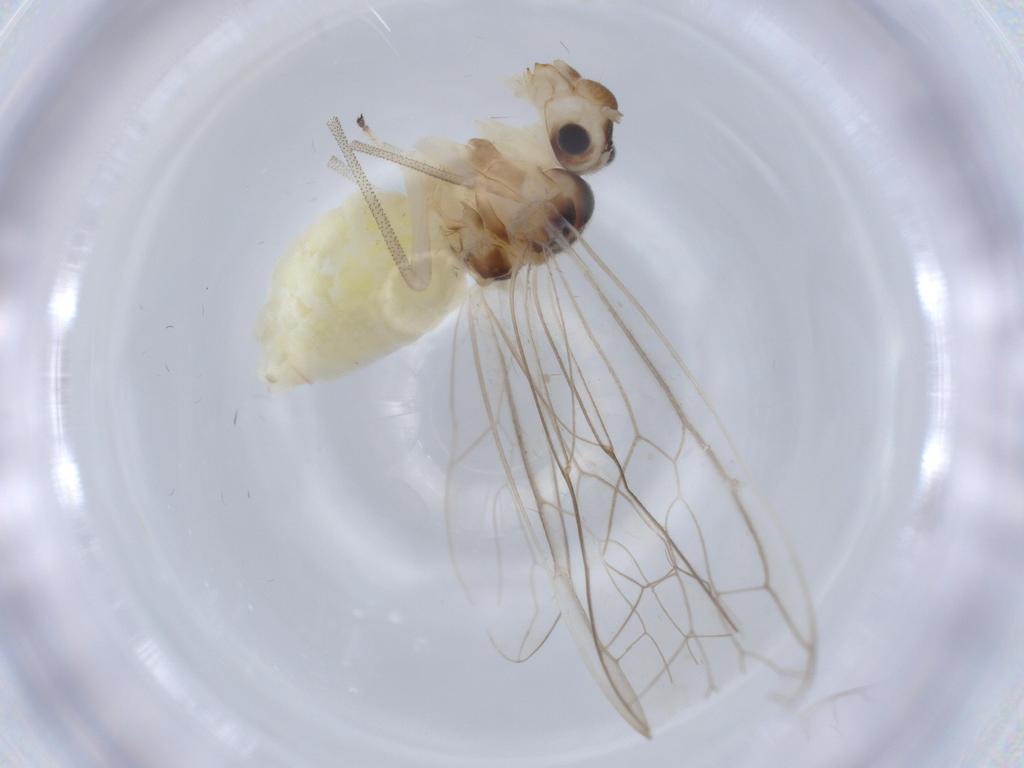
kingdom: Animalia
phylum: Arthropoda
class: Insecta
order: Psocodea
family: Stenopsocidae
